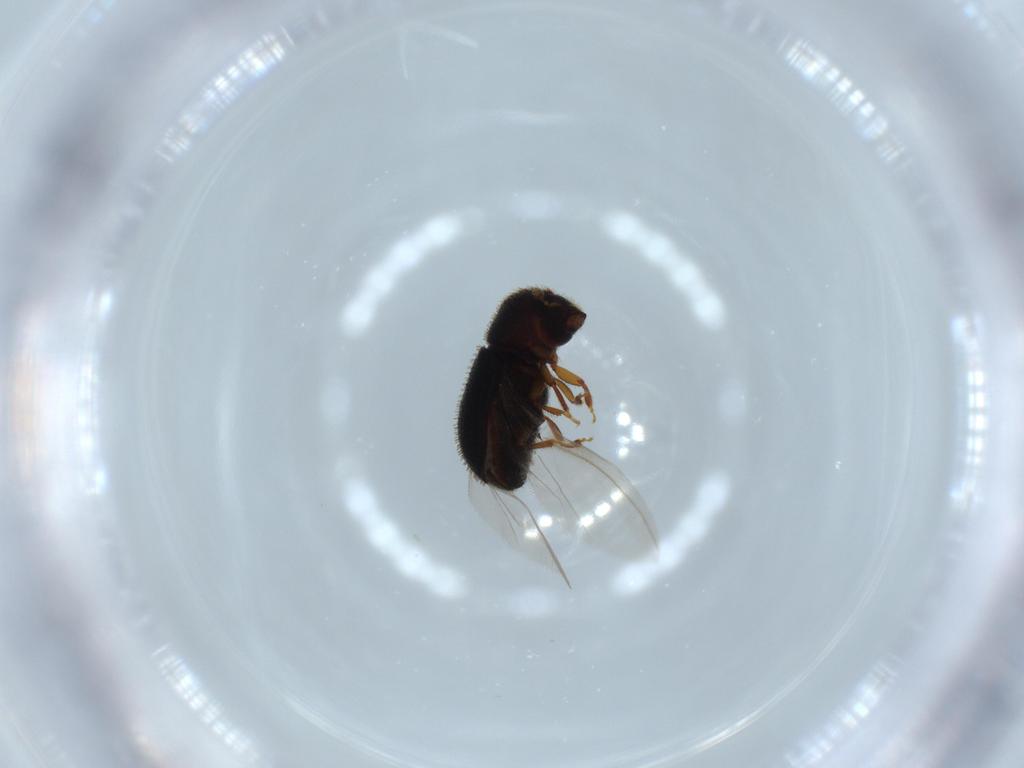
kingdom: Animalia
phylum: Arthropoda
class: Insecta
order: Coleoptera
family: Curculionidae
